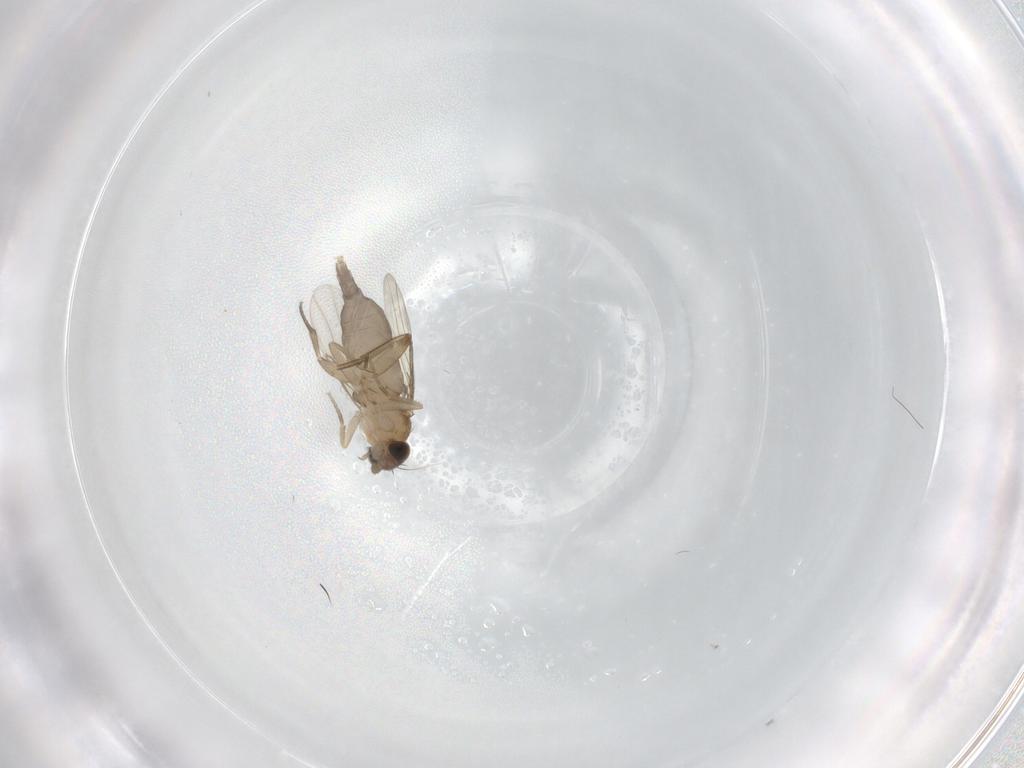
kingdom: Animalia
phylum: Arthropoda
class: Insecta
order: Diptera
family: Phoridae
